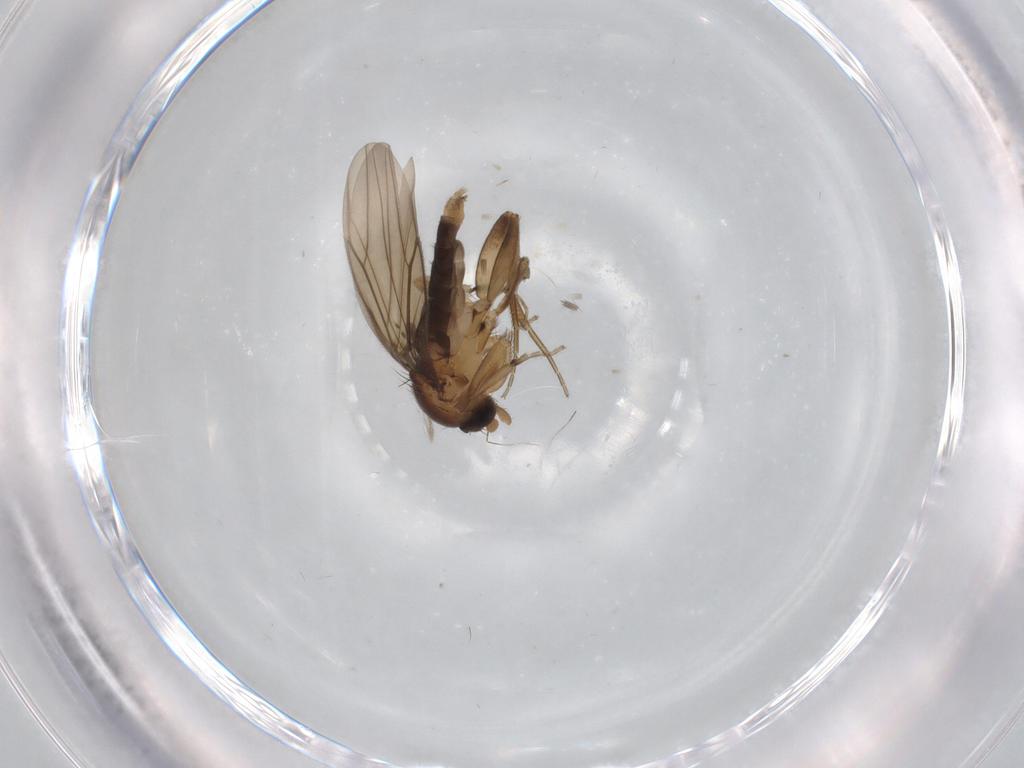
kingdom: Animalia
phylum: Arthropoda
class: Insecta
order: Diptera
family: Phoridae
